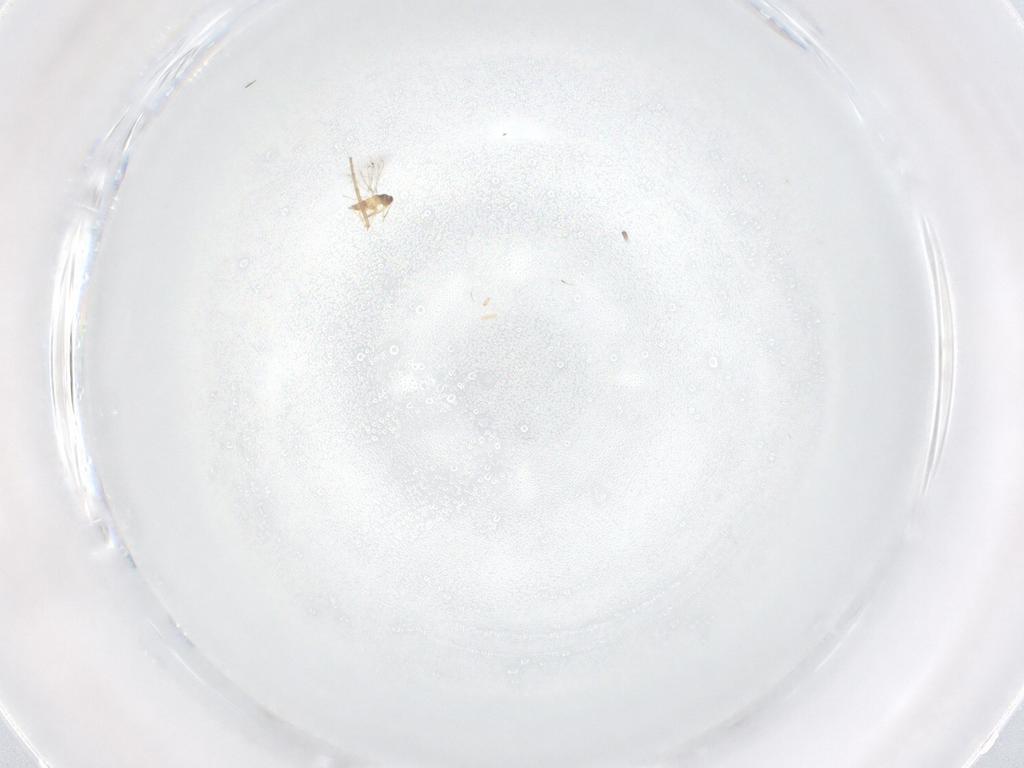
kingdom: Animalia
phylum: Arthropoda
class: Insecta
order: Hymenoptera
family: Mymaridae
